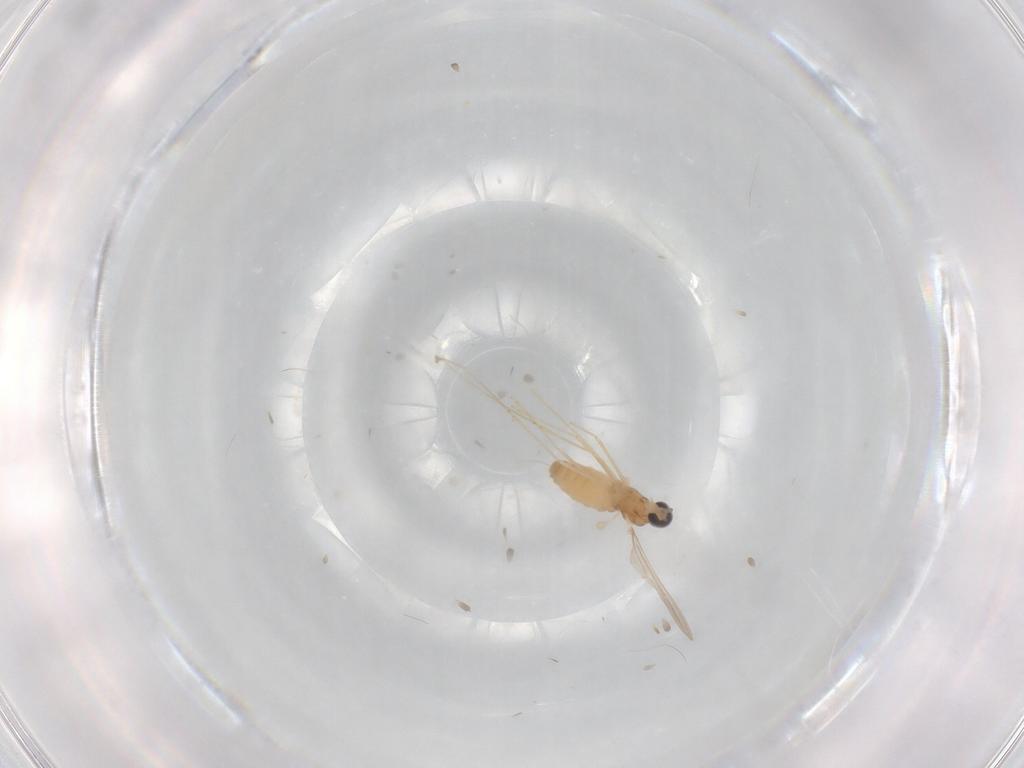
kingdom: Animalia
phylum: Arthropoda
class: Insecta
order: Diptera
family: Cecidomyiidae
